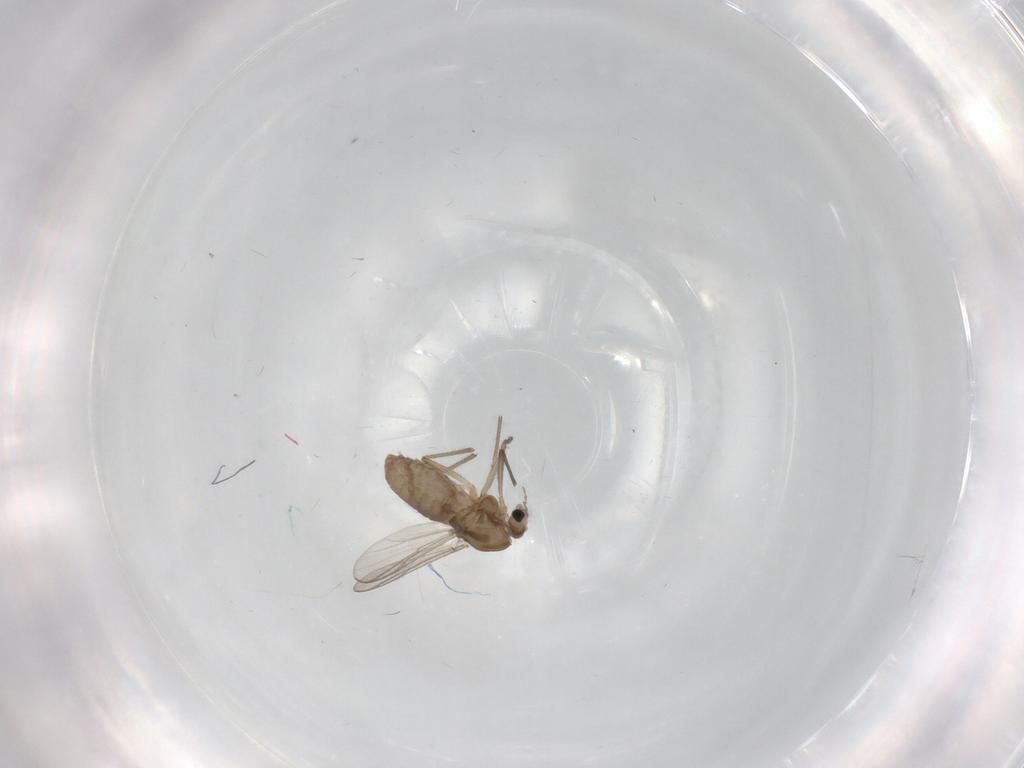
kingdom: Animalia
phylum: Arthropoda
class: Insecta
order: Diptera
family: Chironomidae
